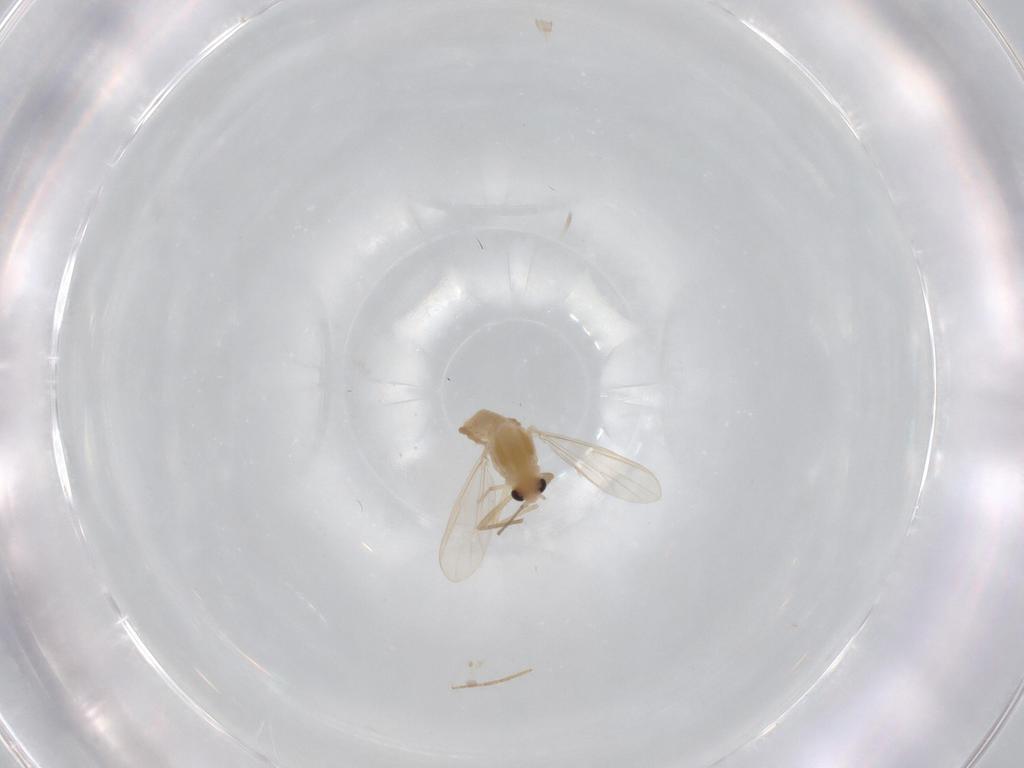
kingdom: Animalia
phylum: Arthropoda
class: Insecta
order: Diptera
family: Chironomidae
